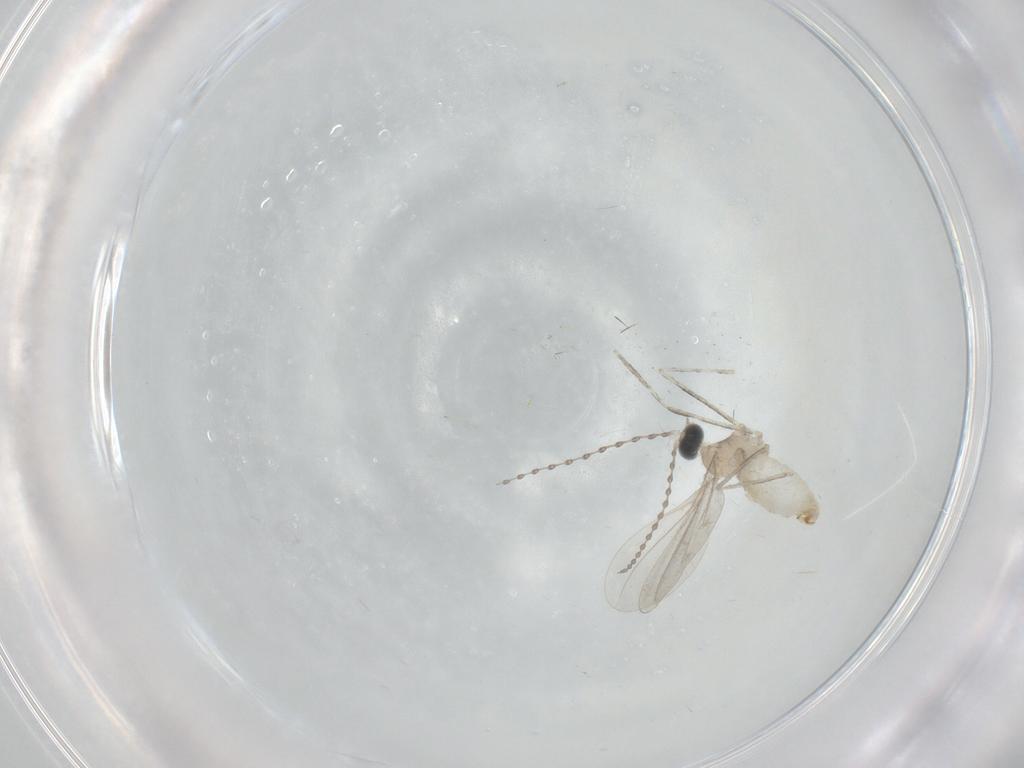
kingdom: Animalia
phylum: Arthropoda
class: Insecta
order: Diptera
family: Cecidomyiidae
